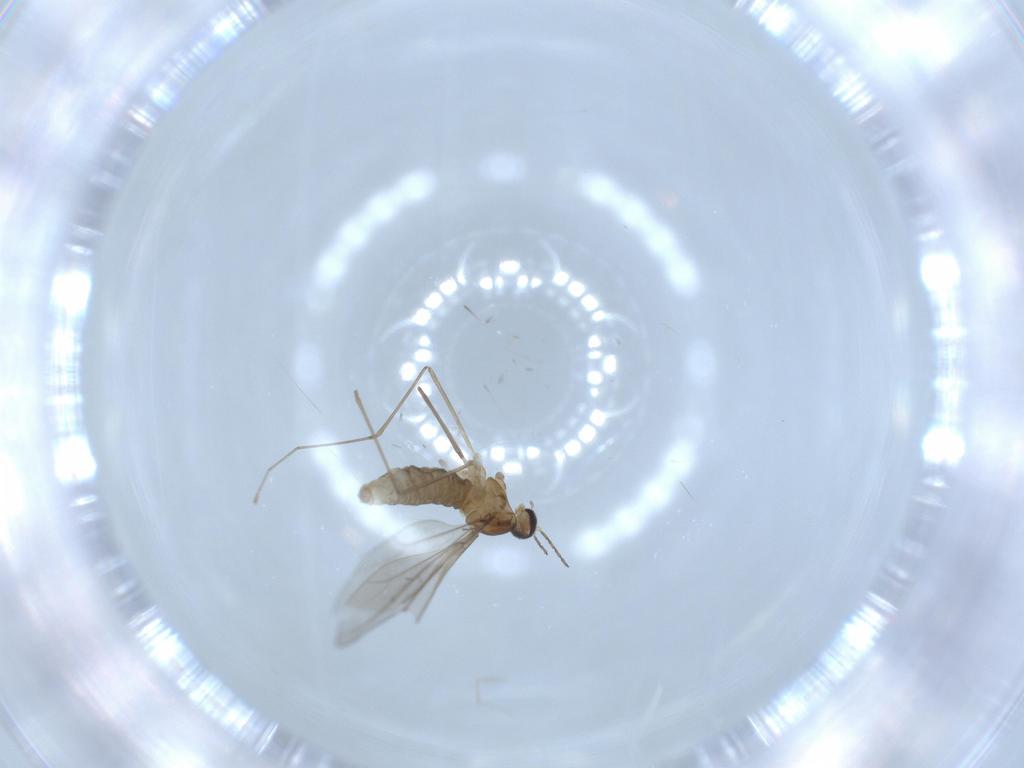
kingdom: Animalia
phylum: Arthropoda
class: Insecta
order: Diptera
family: Cecidomyiidae
